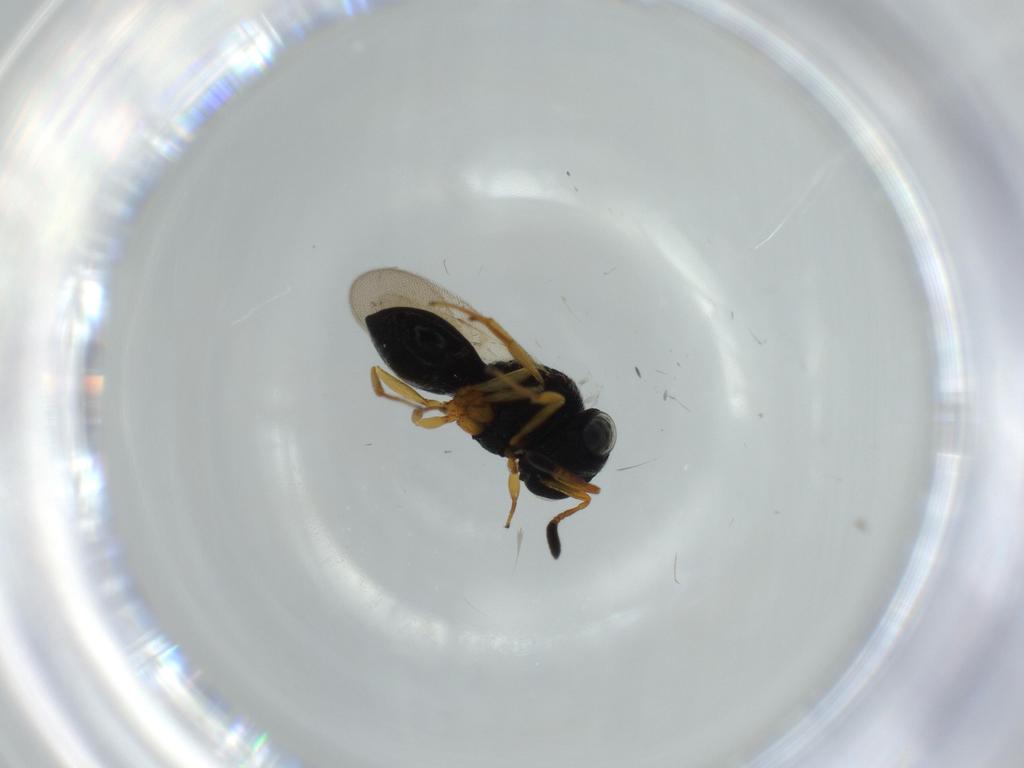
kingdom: Animalia
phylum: Arthropoda
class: Insecta
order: Hymenoptera
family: Scelionidae
